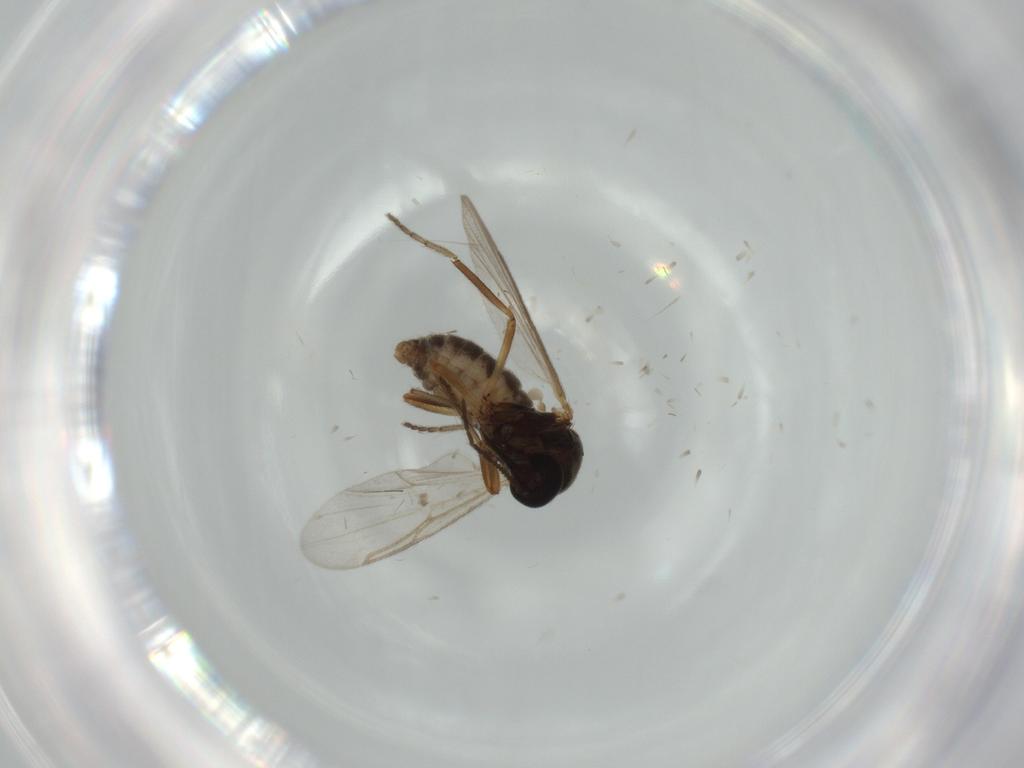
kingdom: Animalia
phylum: Arthropoda
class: Insecta
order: Diptera
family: Ceratopogonidae
